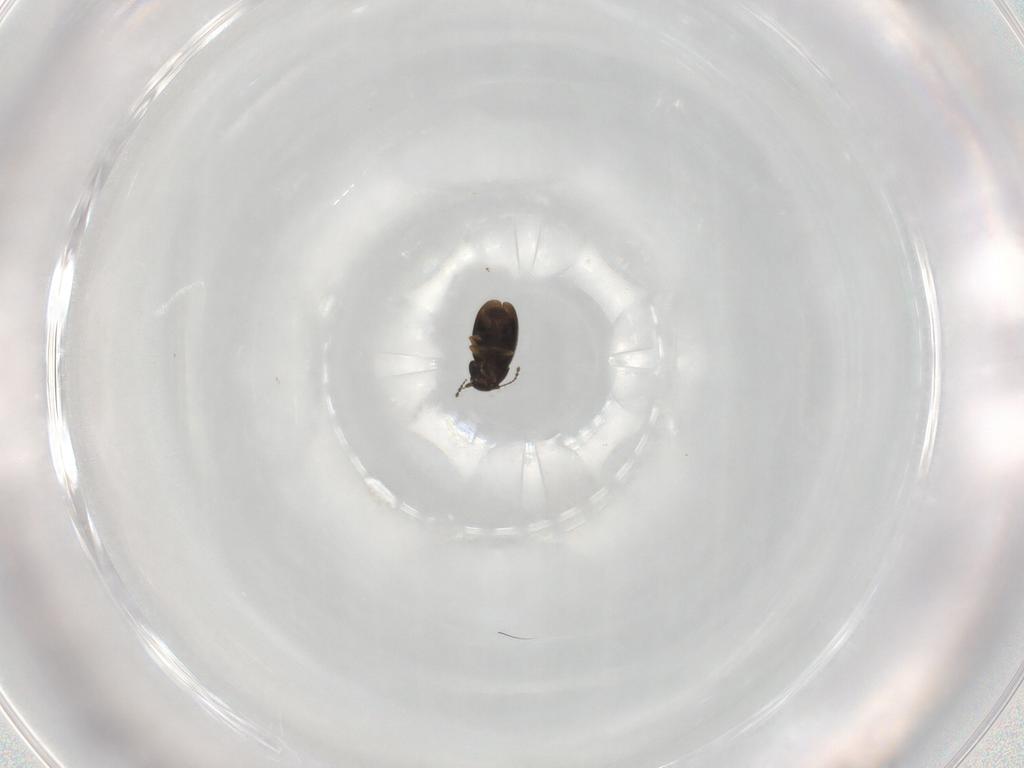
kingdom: Animalia
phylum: Arthropoda
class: Insecta
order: Coleoptera
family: Ptiliidae
